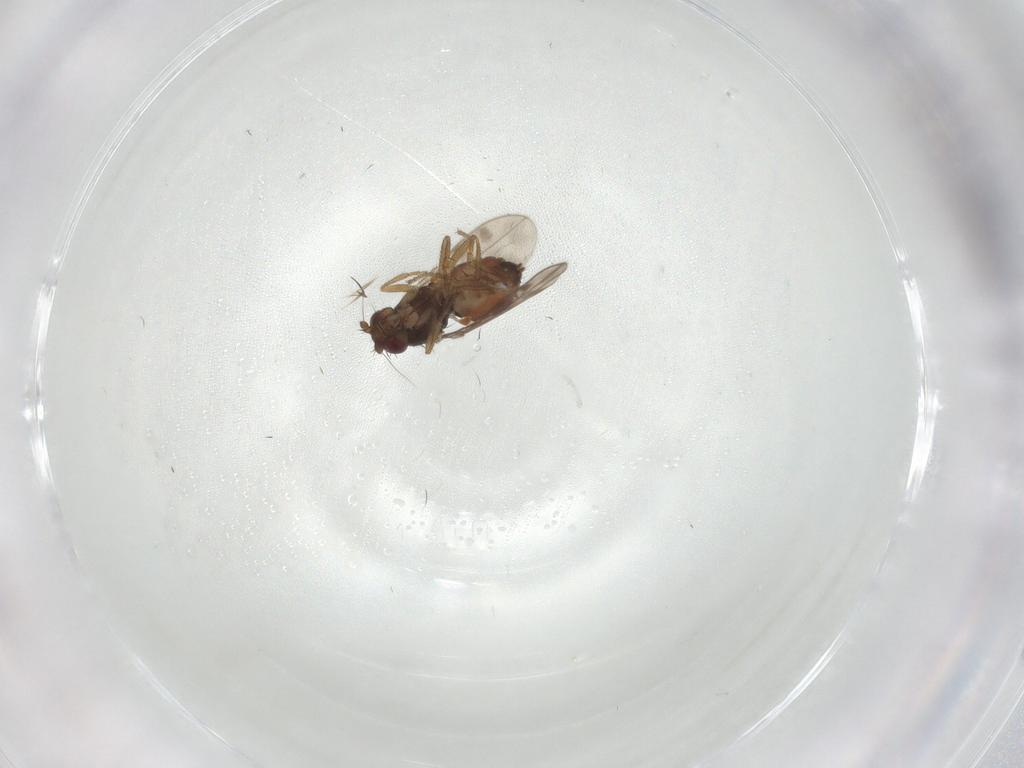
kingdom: Animalia
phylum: Arthropoda
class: Insecta
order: Diptera
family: Sphaeroceridae
